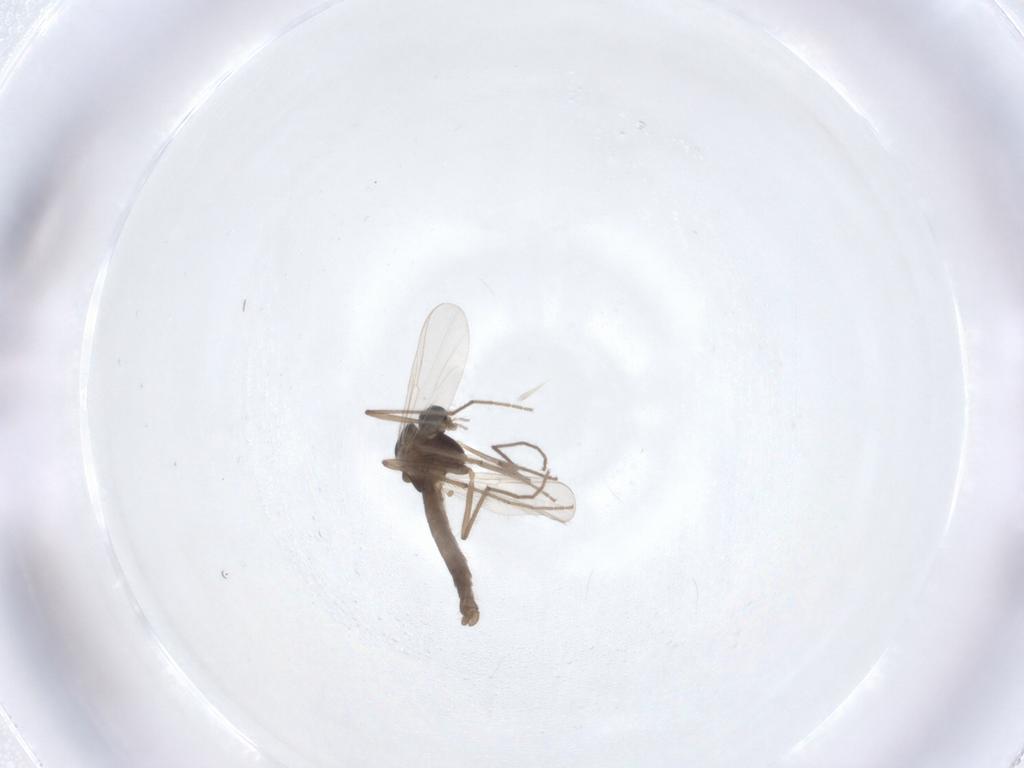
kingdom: Animalia
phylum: Arthropoda
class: Insecta
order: Diptera
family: Chironomidae
